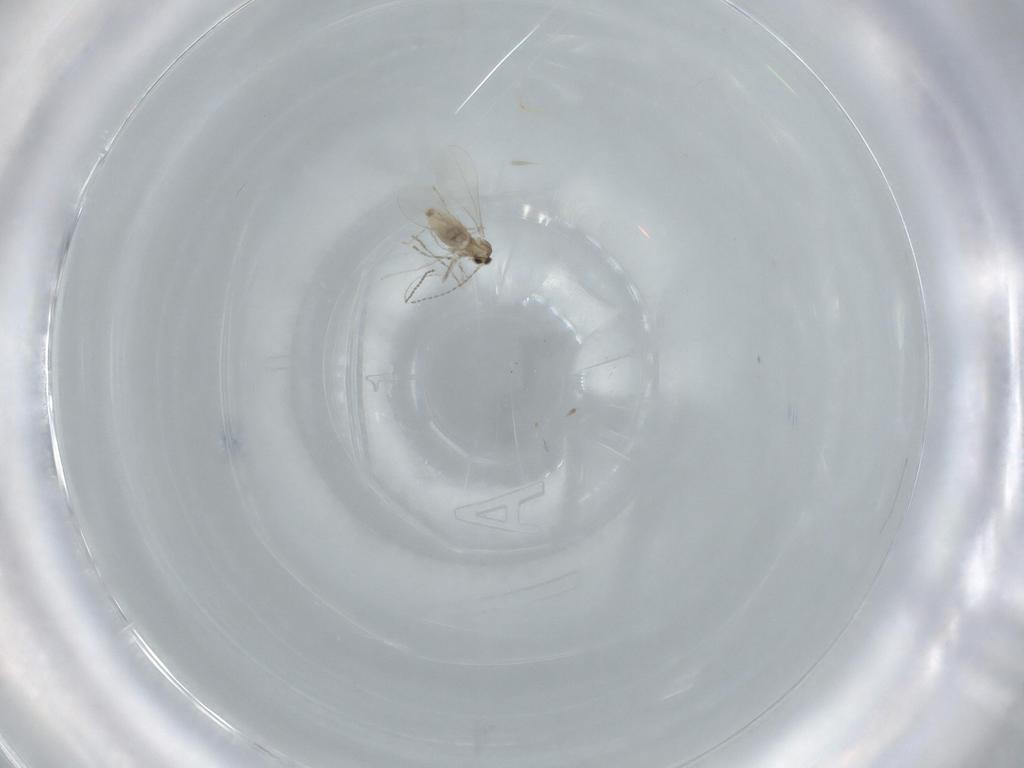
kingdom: Animalia
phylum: Arthropoda
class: Insecta
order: Diptera
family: Cecidomyiidae
